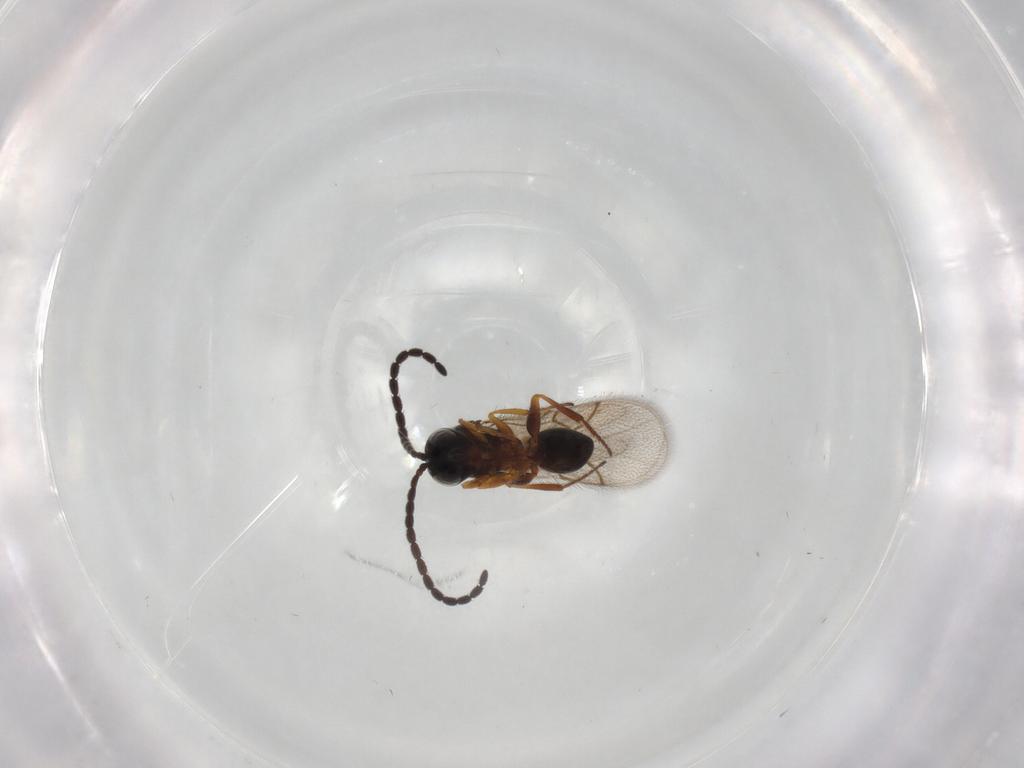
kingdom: Animalia
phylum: Arthropoda
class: Insecta
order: Hymenoptera
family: Figitidae
